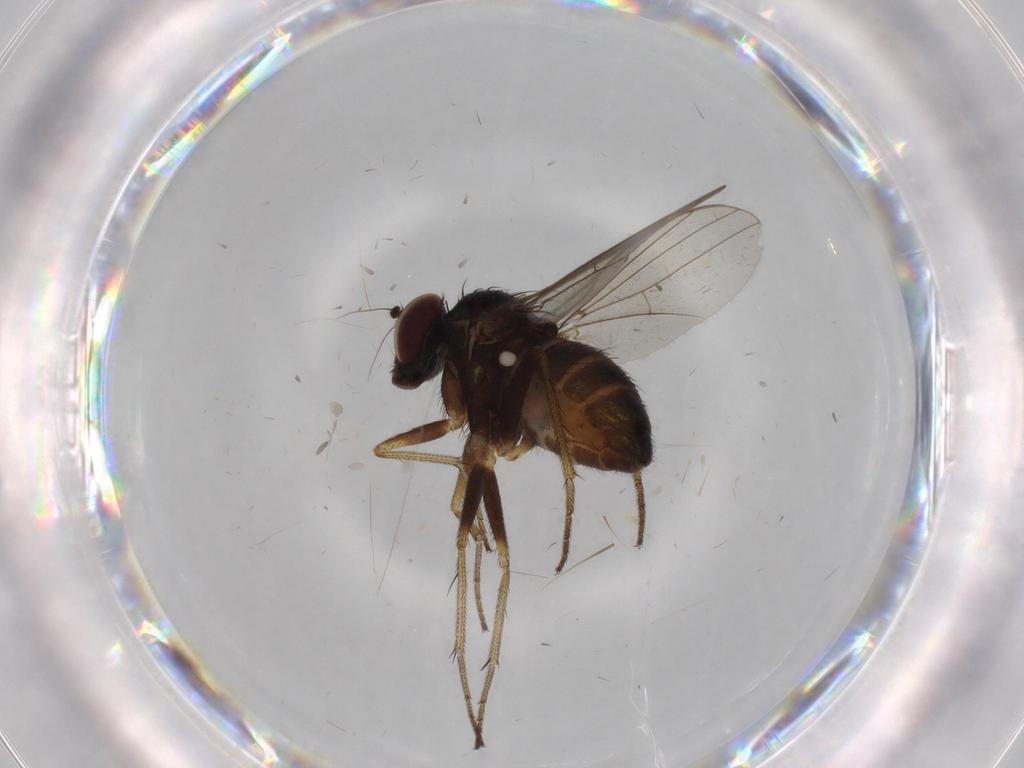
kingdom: Animalia
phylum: Arthropoda
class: Insecta
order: Diptera
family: Dolichopodidae
